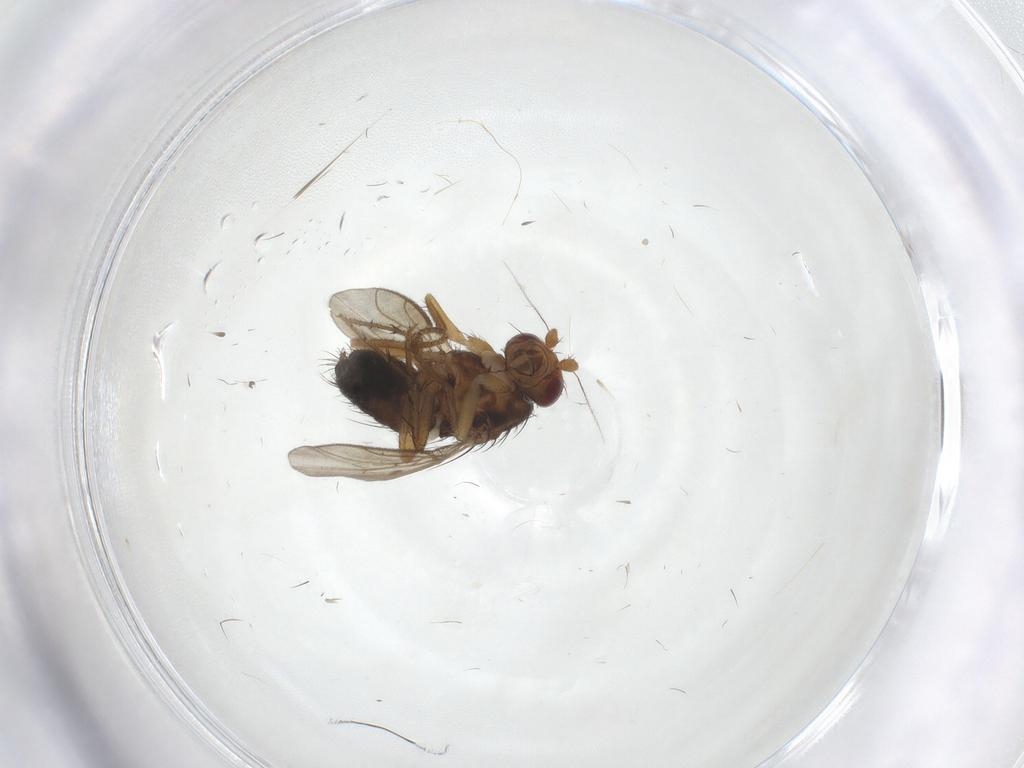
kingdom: Animalia
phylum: Arthropoda
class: Insecta
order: Diptera
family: Sphaeroceridae
